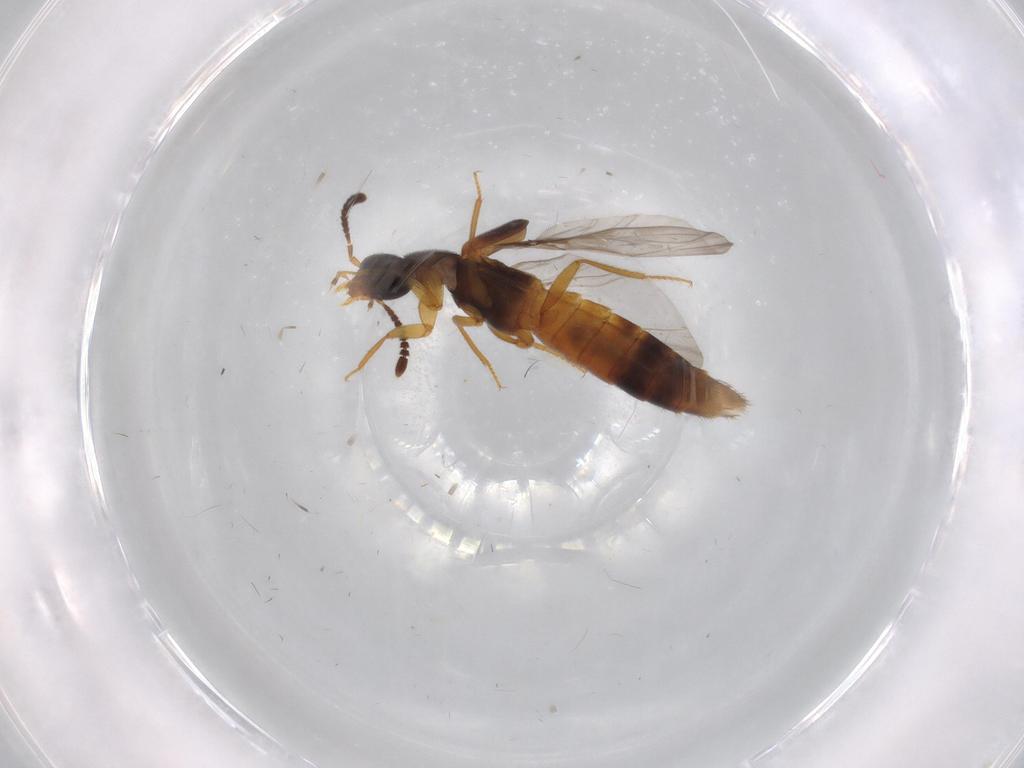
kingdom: Animalia
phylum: Arthropoda
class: Insecta
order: Coleoptera
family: Staphylinidae
